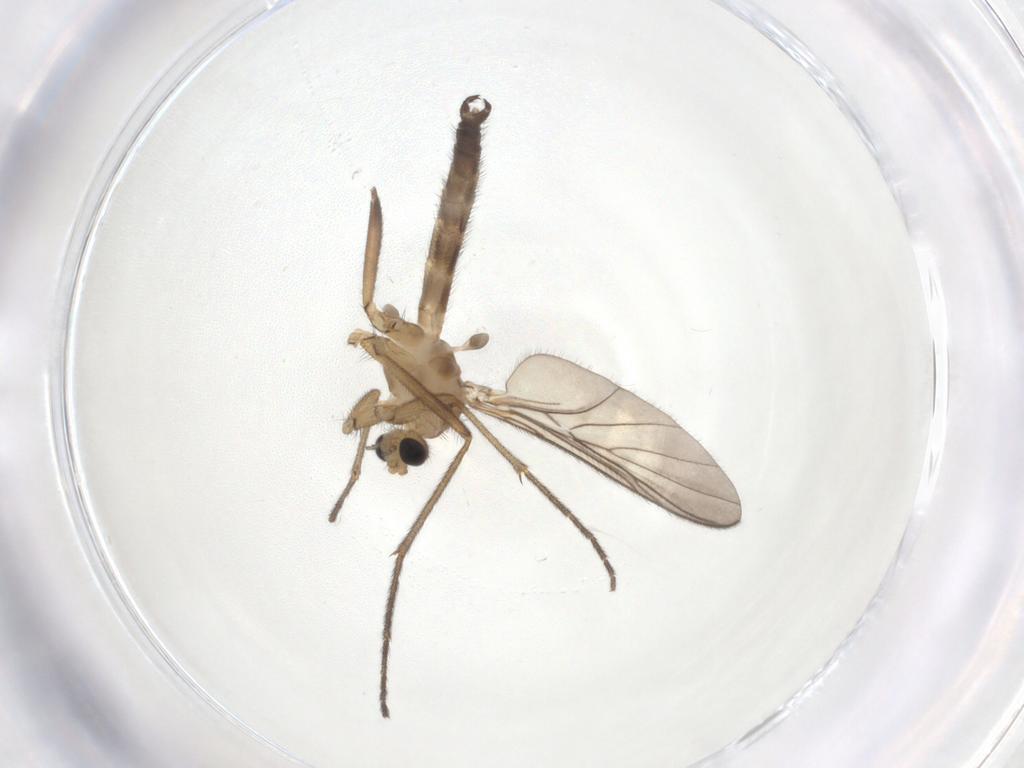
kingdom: Animalia
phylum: Arthropoda
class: Insecta
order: Diptera
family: Keroplatidae
